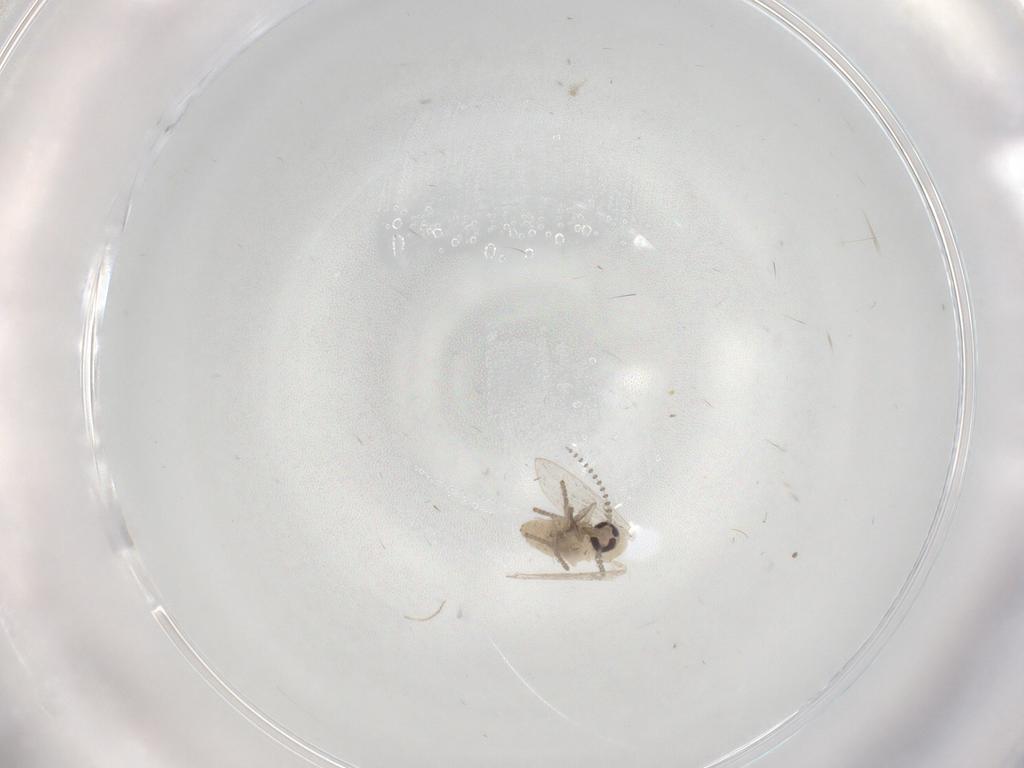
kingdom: Animalia
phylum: Arthropoda
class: Insecta
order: Diptera
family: Psychodidae
